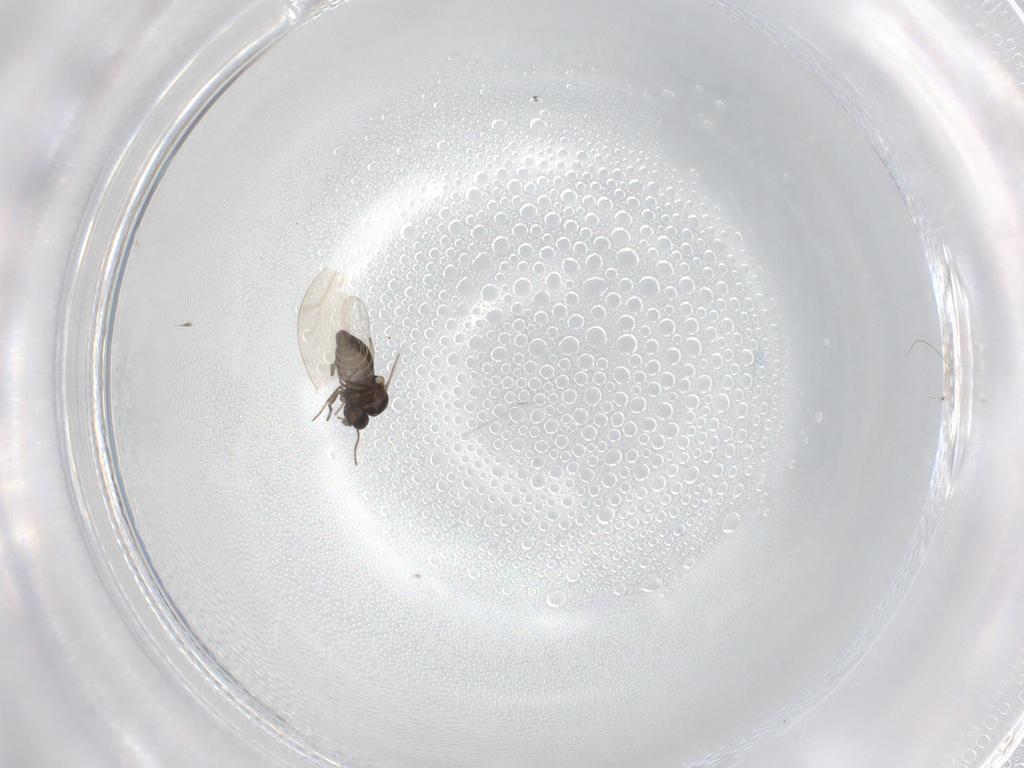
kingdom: Animalia
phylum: Arthropoda
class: Insecta
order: Diptera
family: Ceratopogonidae
